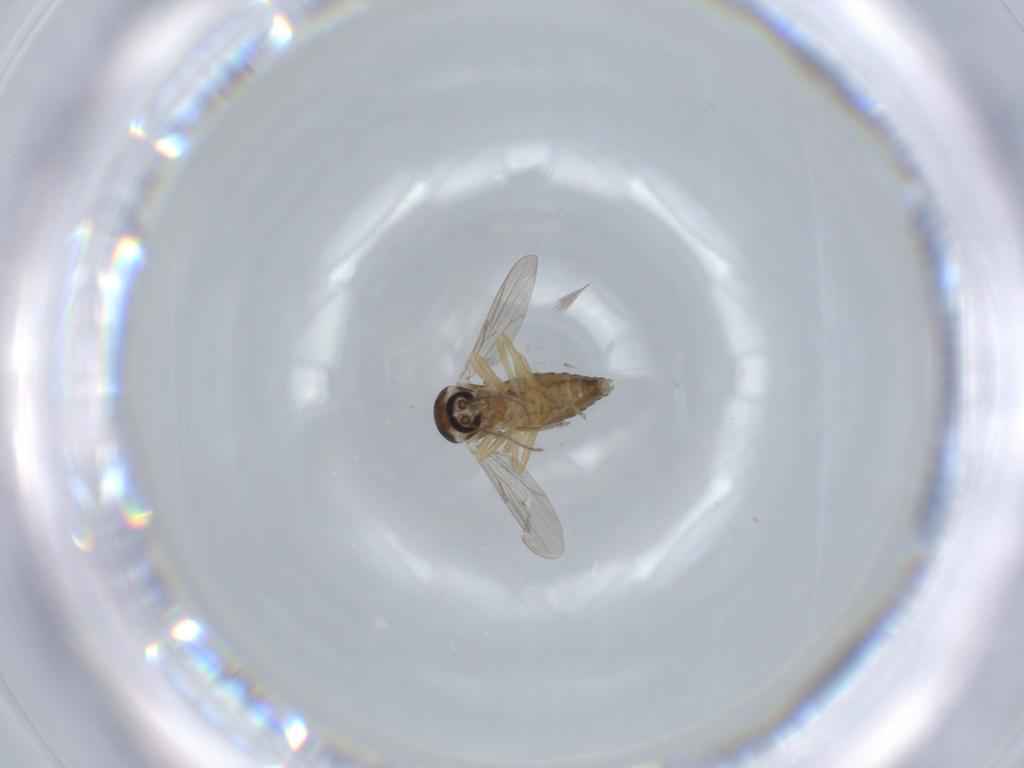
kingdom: Animalia
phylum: Arthropoda
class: Insecta
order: Diptera
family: Ceratopogonidae
